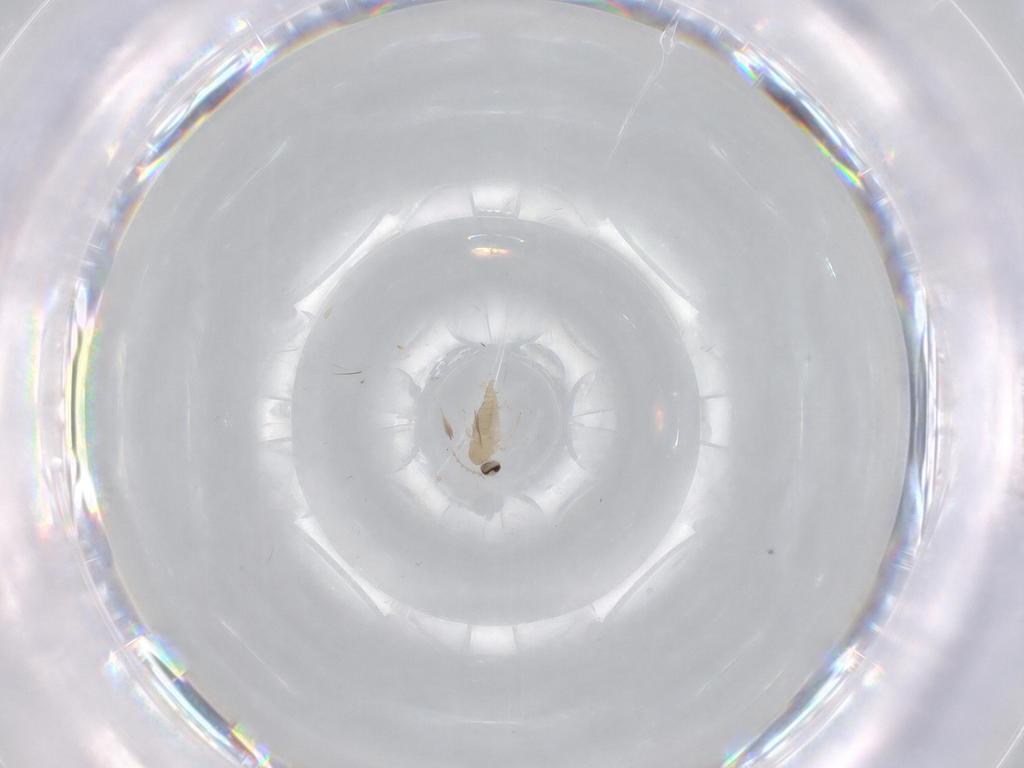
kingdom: Animalia
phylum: Arthropoda
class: Insecta
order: Diptera
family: Cecidomyiidae
